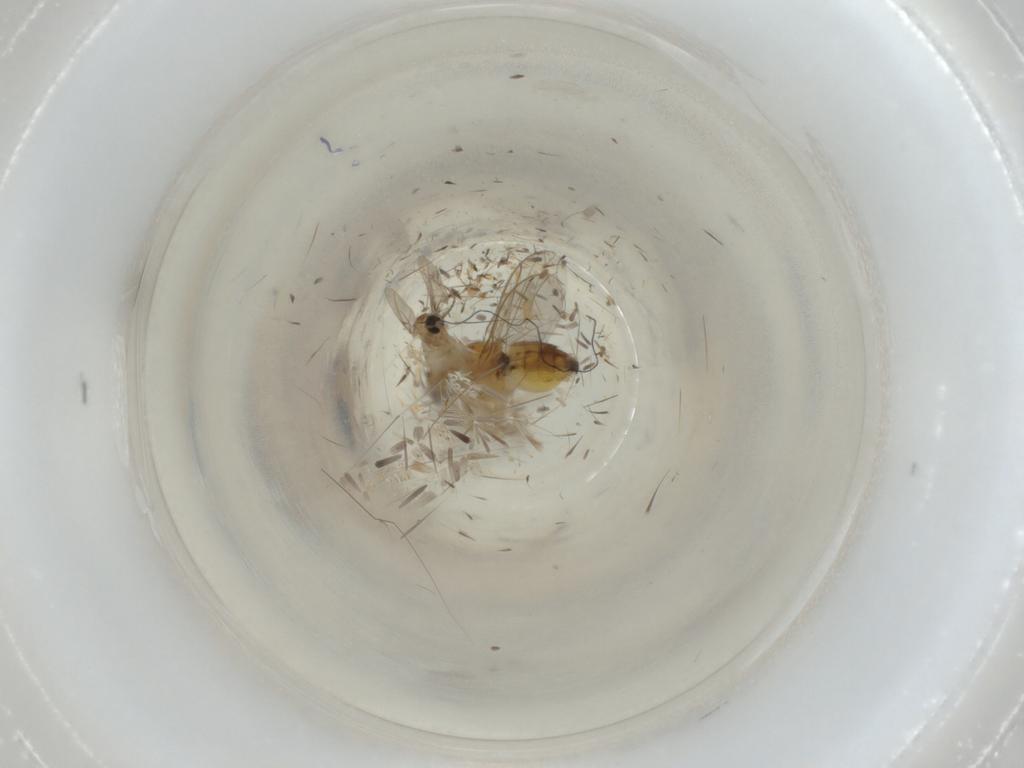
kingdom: Animalia
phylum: Arthropoda
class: Insecta
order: Diptera
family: Chloropidae
